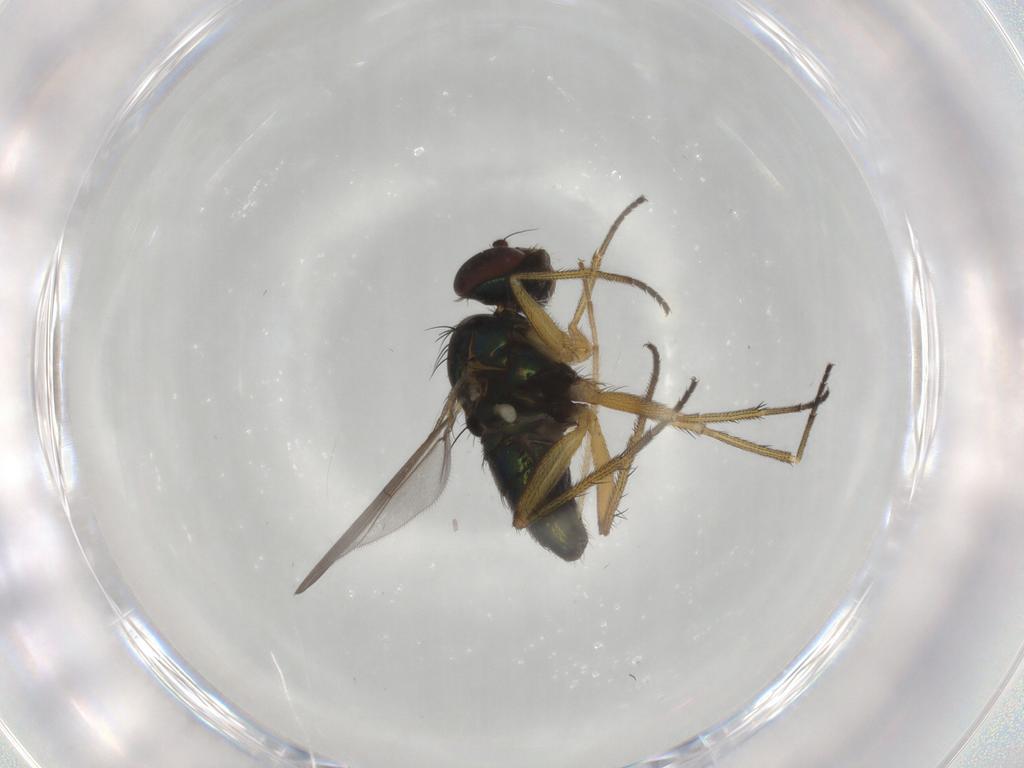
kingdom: Animalia
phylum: Arthropoda
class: Insecta
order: Diptera
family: Dolichopodidae
